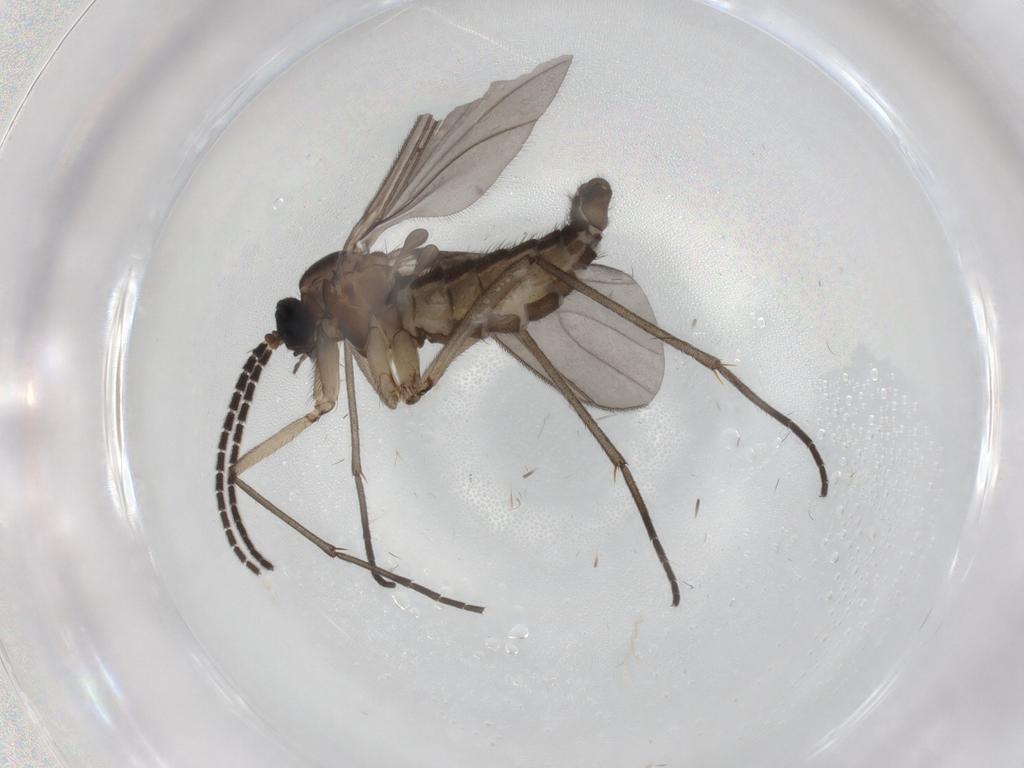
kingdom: Animalia
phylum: Arthropoda
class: Insecta
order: Diptera
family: Sciaridae
